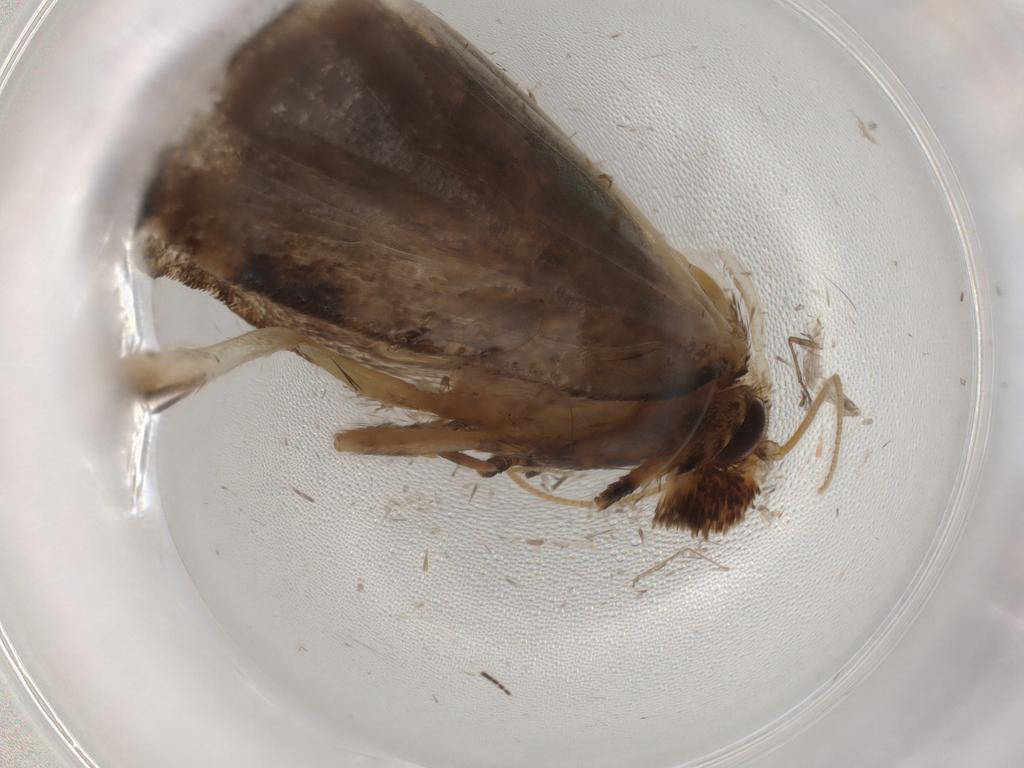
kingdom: Animalia
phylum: Arthropoda
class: Insecta
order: Lepidoptera
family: Tineidae
